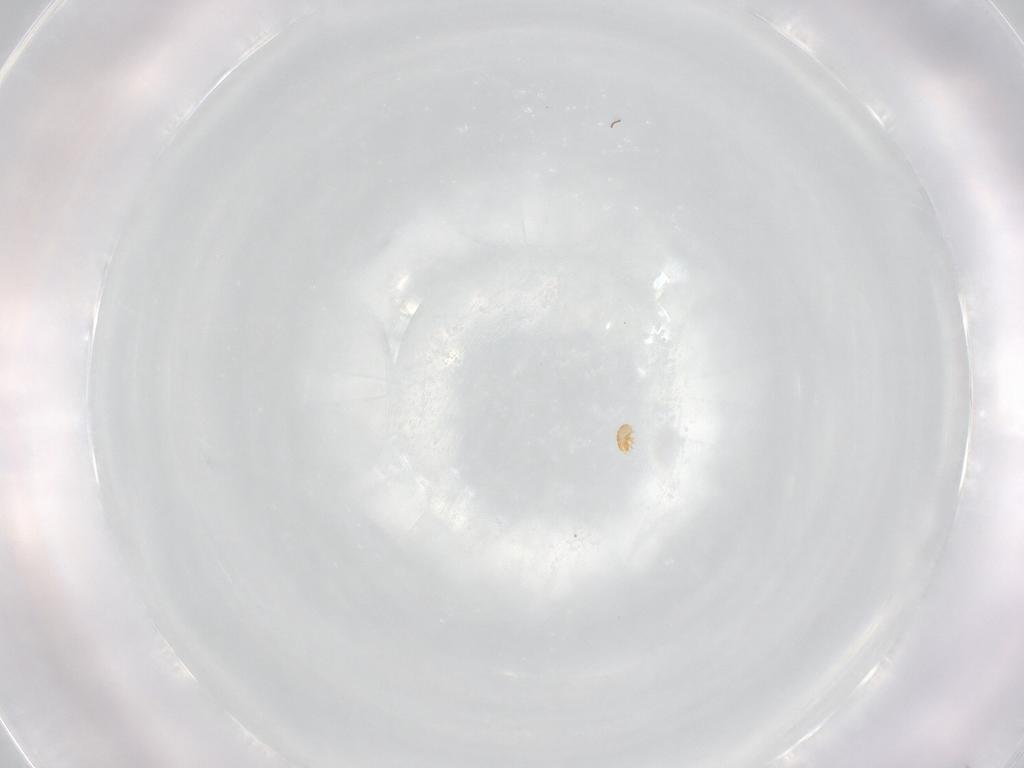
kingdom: Animalia
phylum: Arthropoda
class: Arachnida
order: Sarcoptiformes
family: Brachychthoniidae
